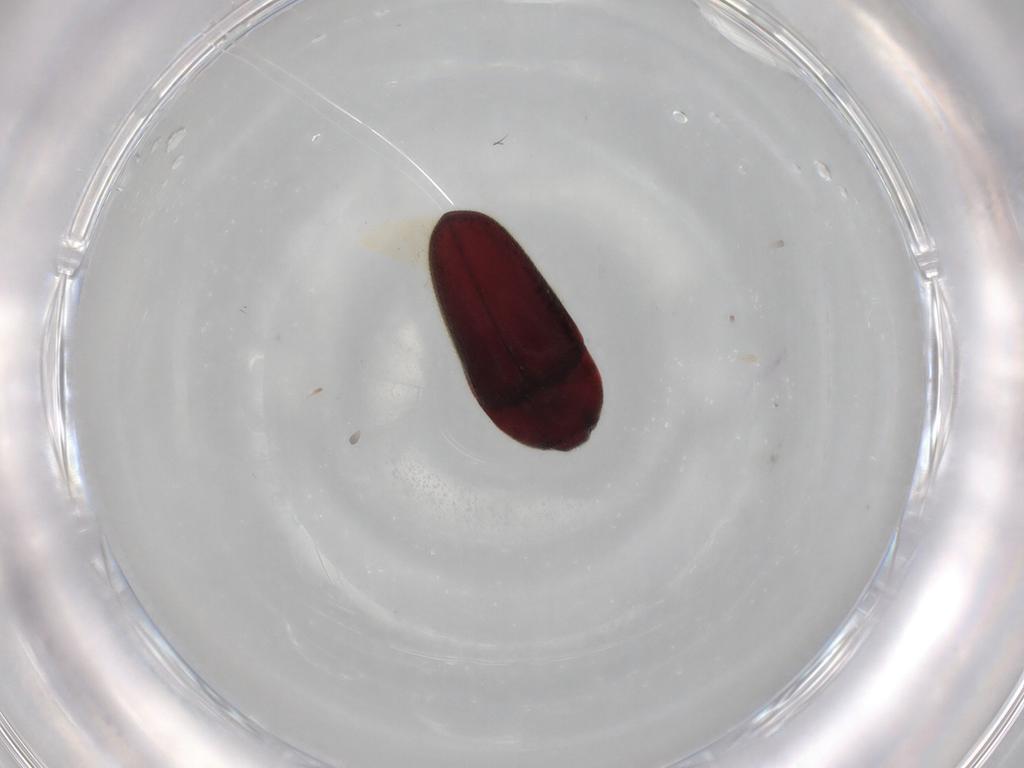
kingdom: Animalia
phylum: Arthropoda
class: Insecta
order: Coleoptera
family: Throscidae
